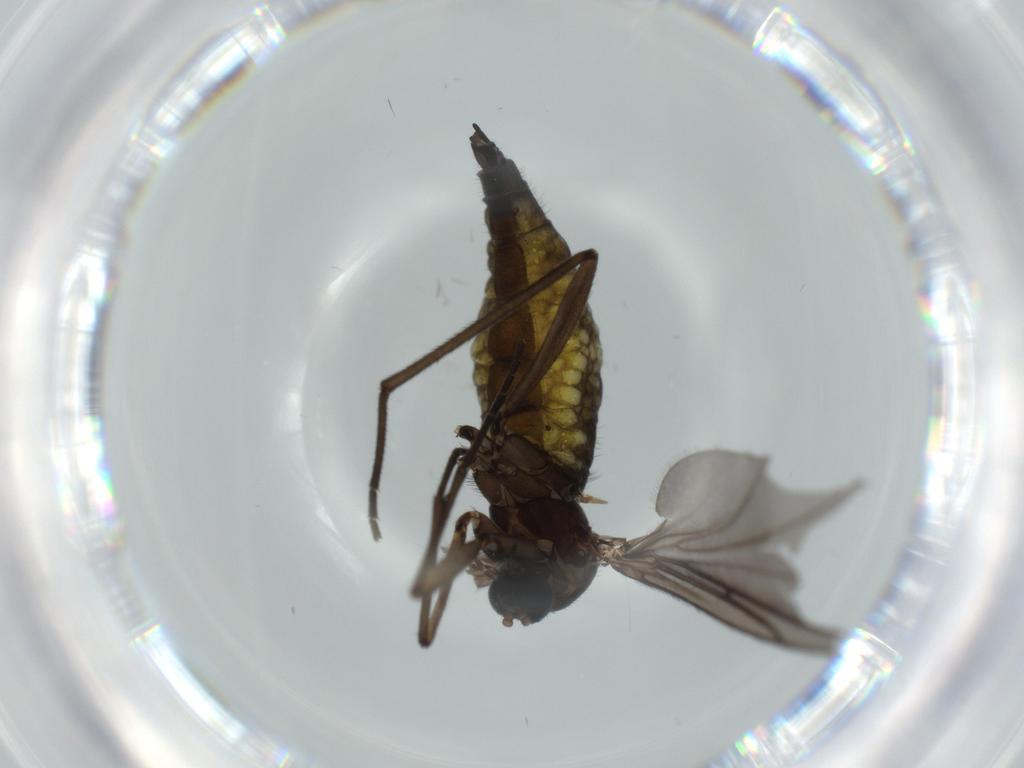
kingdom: Animalia
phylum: Arthropoda
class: Insecta
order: Diptera
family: Sciaridae
